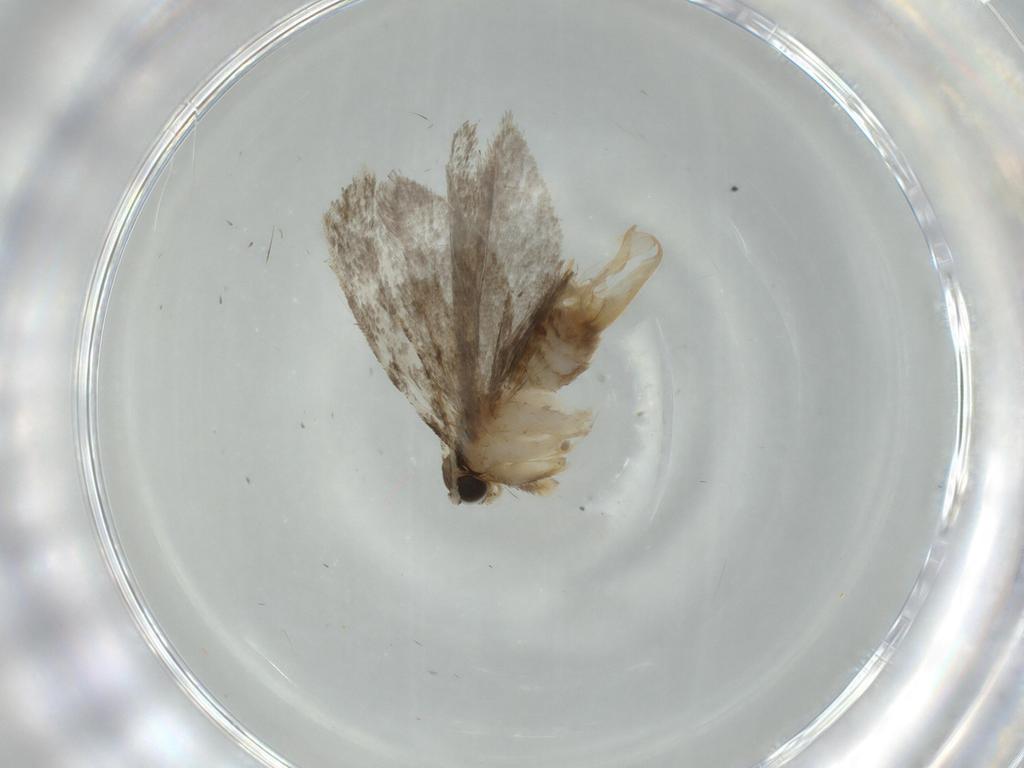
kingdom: Animalia
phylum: Arthropoda
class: Insecta
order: Lepidoptera
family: Tineidae
